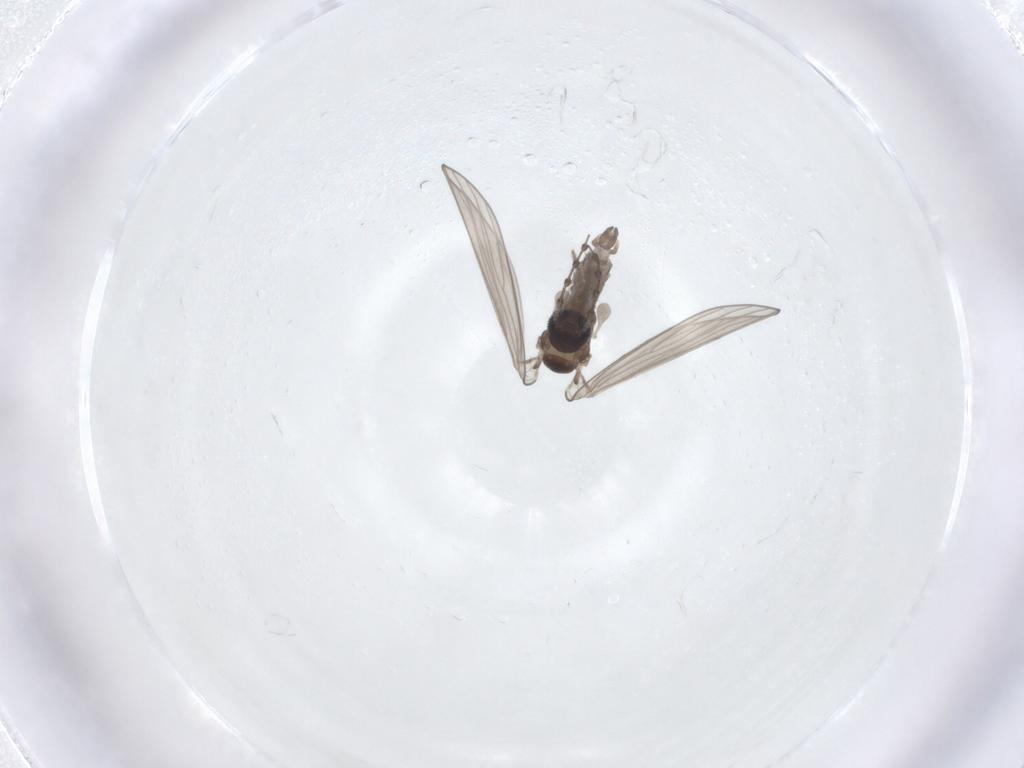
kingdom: Animalia
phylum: Arthropoda
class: Insecta
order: Diptera
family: Psychodidae
